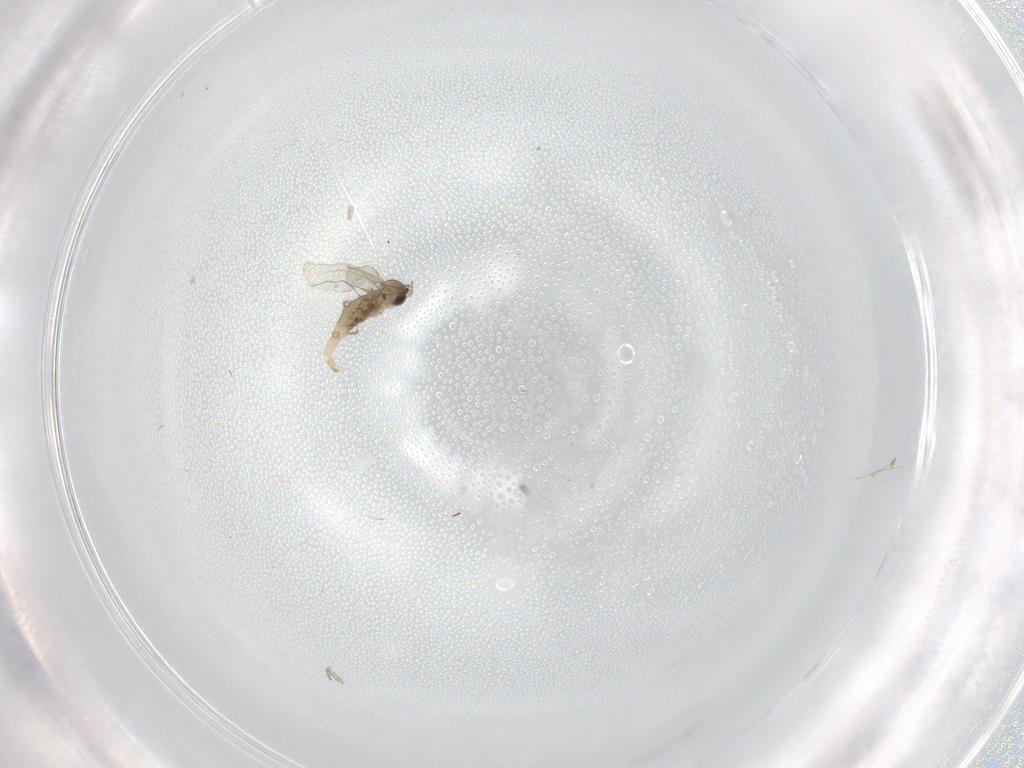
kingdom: Animalia
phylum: Arthropoda
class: Insecta
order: Diptera
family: Cecidomyiidae
